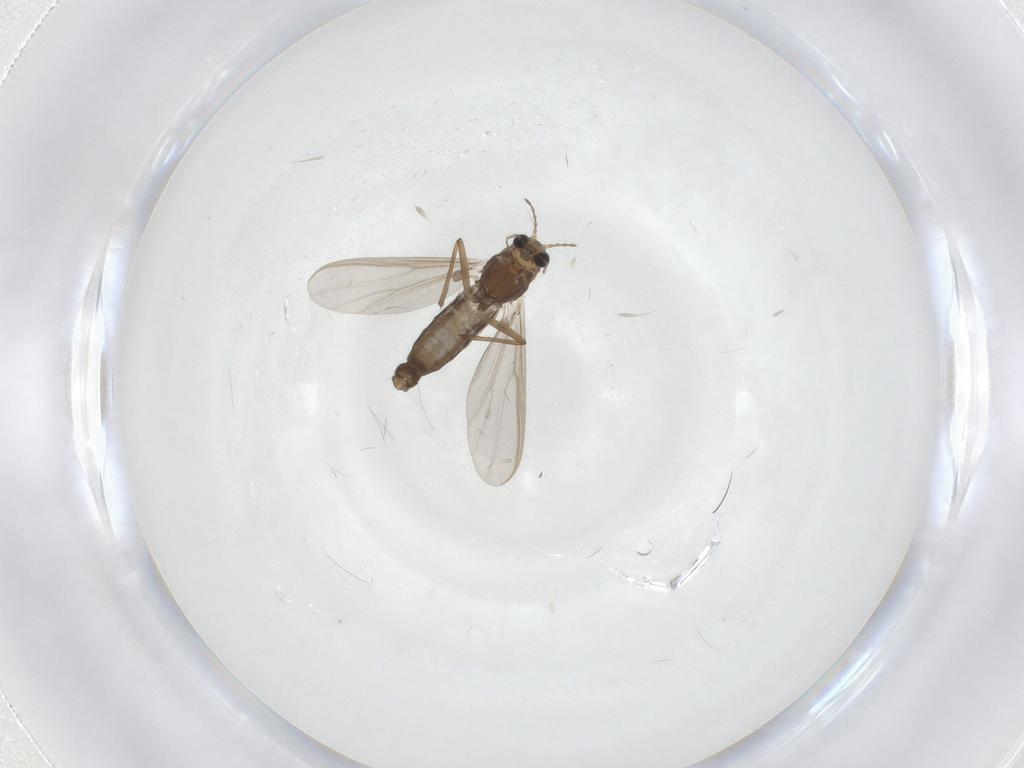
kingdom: Animalia
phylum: Arthropoda
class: Insecta
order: Diptera
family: Chironomidae
